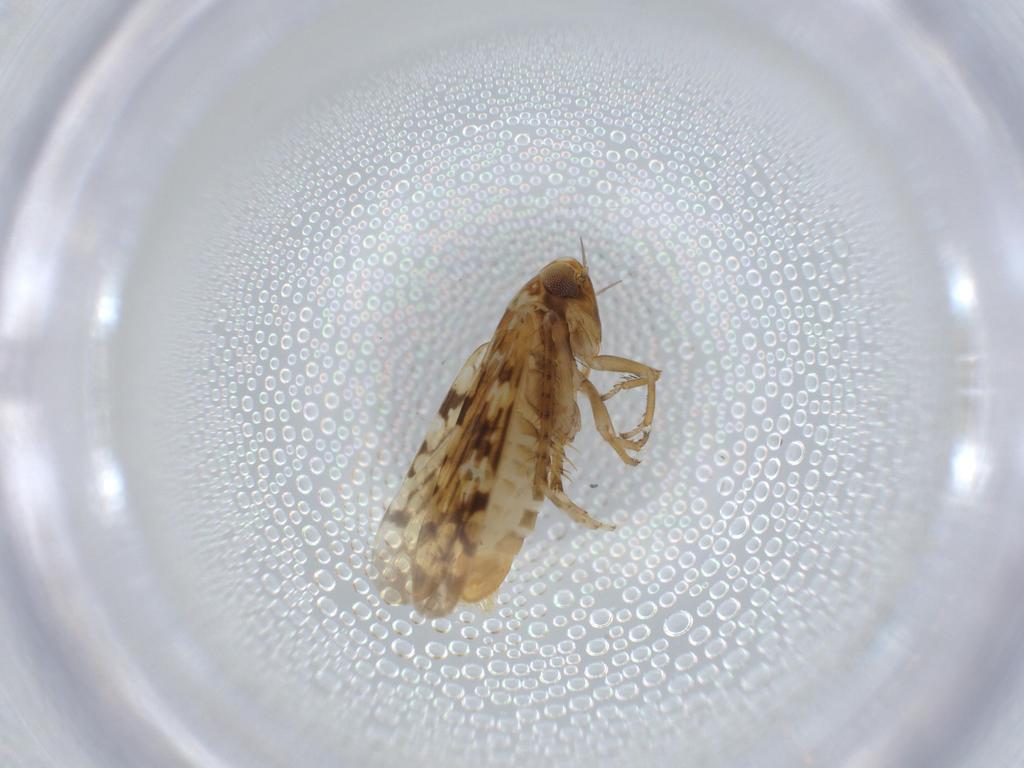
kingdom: Animalia
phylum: Arthropoda
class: Insecta
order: Hemiptera
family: Cicadellidae
